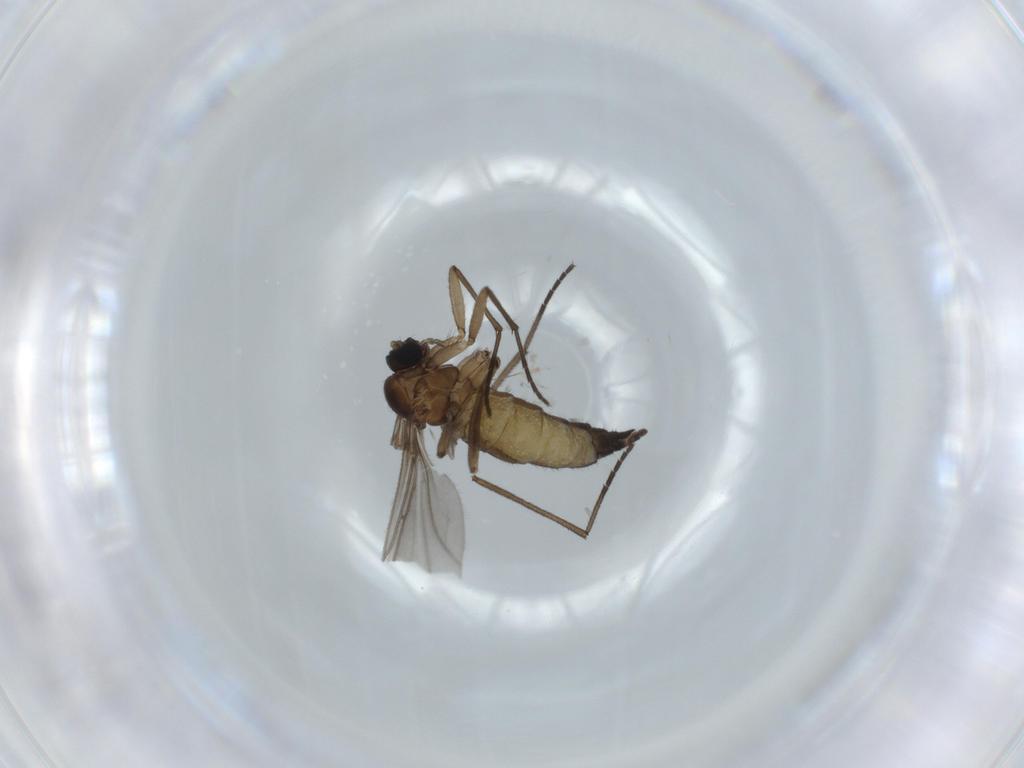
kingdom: Animalia
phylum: Arthropoda
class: Insecta
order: Diptera
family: Sciaridae
